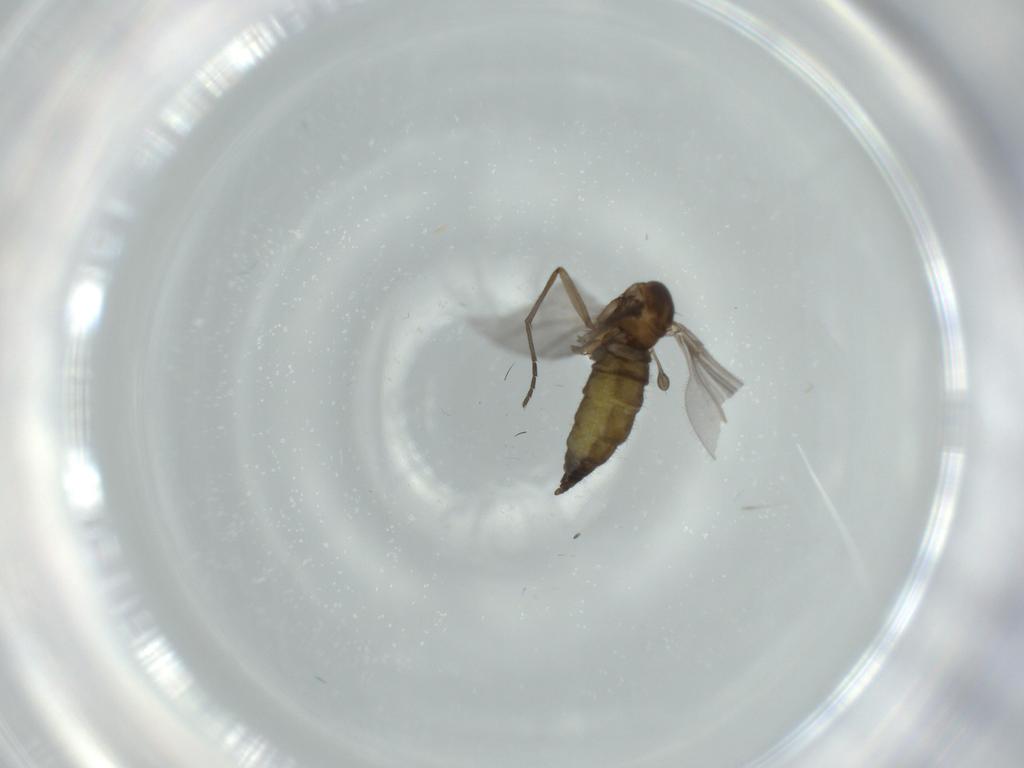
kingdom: Animalia
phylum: Arthropoda
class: Insecta
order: Diptera
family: Sciaridae
